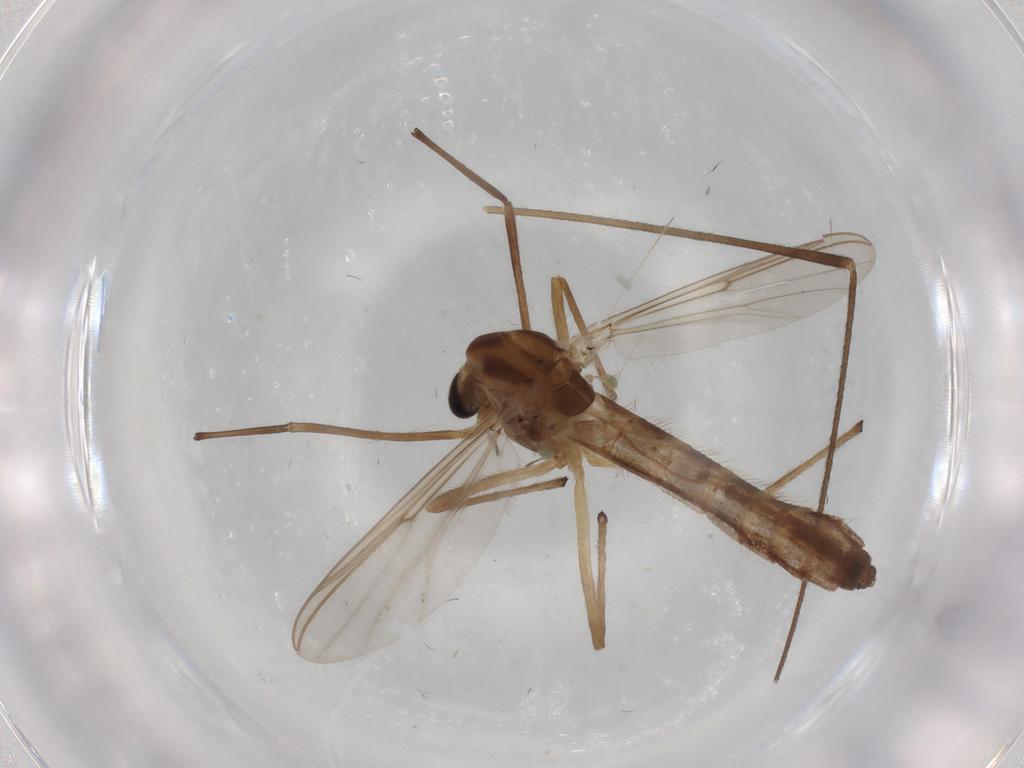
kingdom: Animalia
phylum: Arthropoda
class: Insecta
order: Diptera
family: Chironomidae
